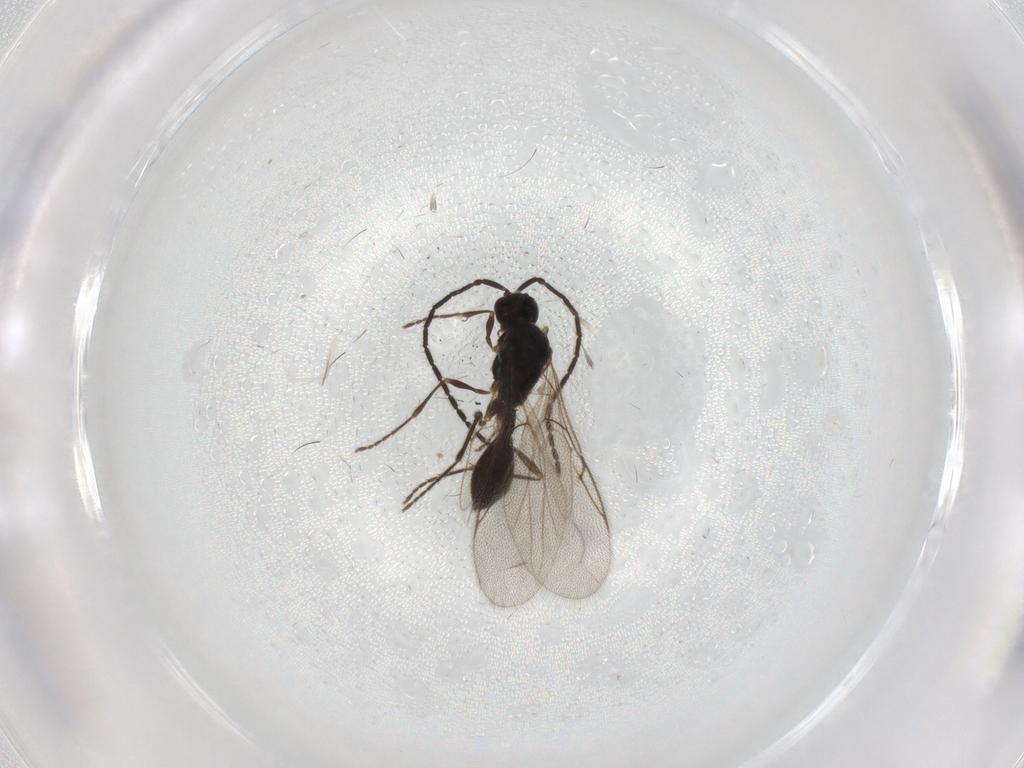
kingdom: Animalia
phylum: Arthropoda
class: Insecta
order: Hymenoptera
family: Diapriidae
